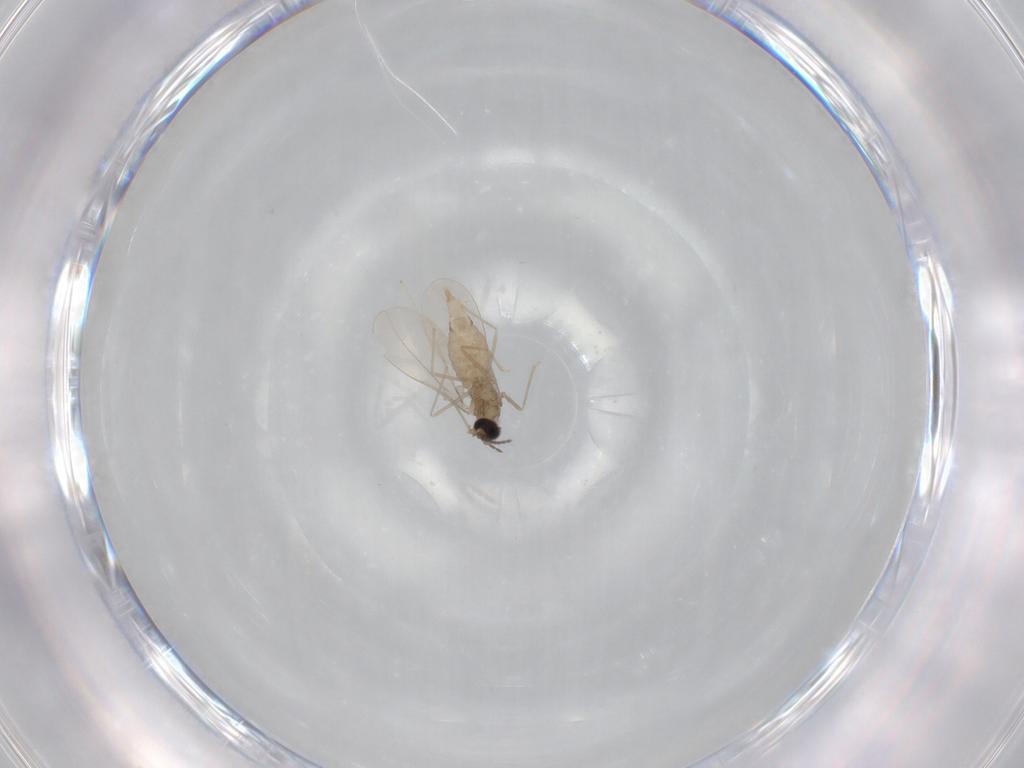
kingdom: Animalia
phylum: Arthropoda
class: Insecta
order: Diptera
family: Cecidomyiidae
